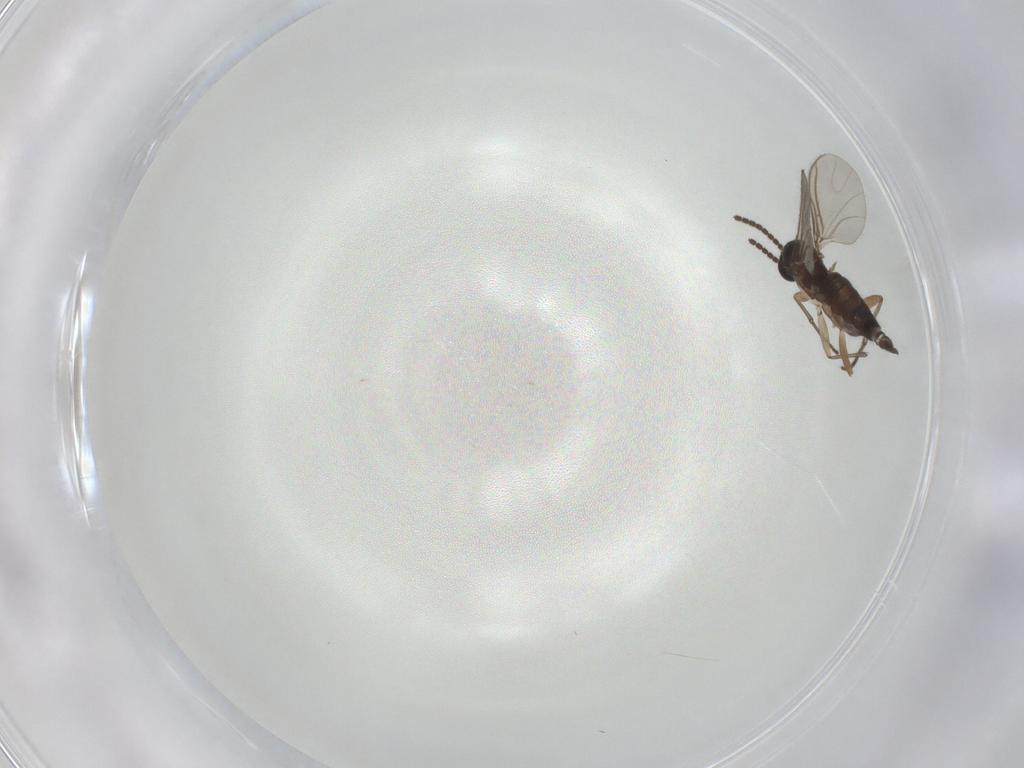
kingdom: Animalia
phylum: Arthropoda
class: Insecta
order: Diptera
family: Sciaridae
